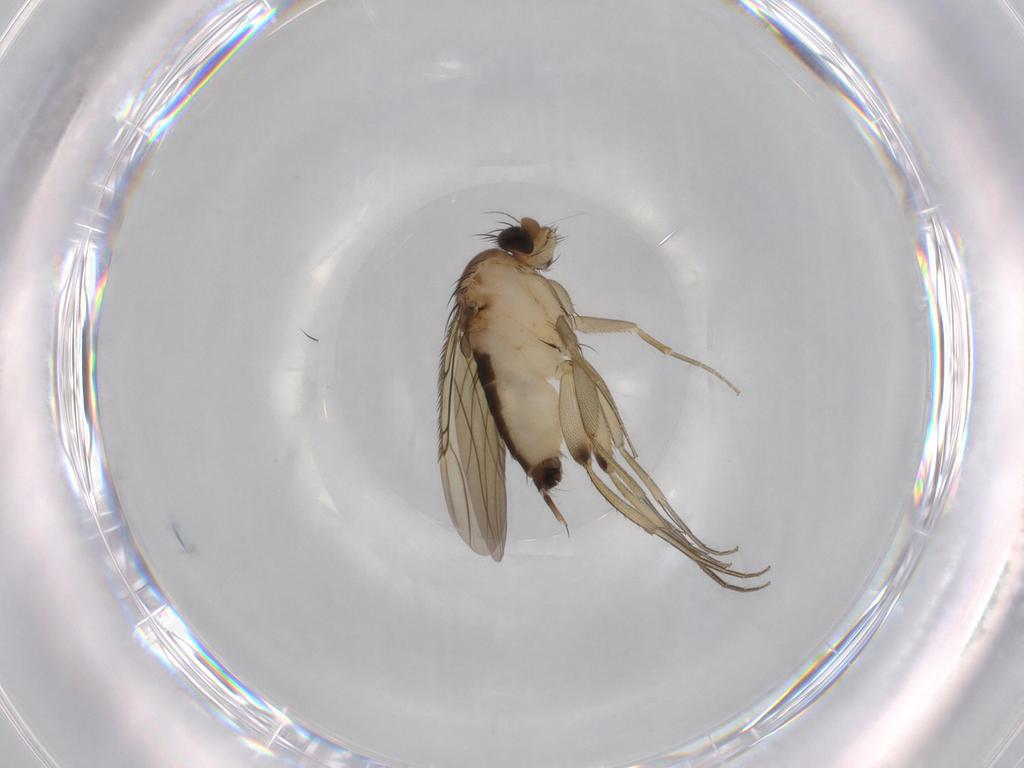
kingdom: Animalia
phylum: Arthropoda
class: Insecta
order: Diptera
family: Phoridae
